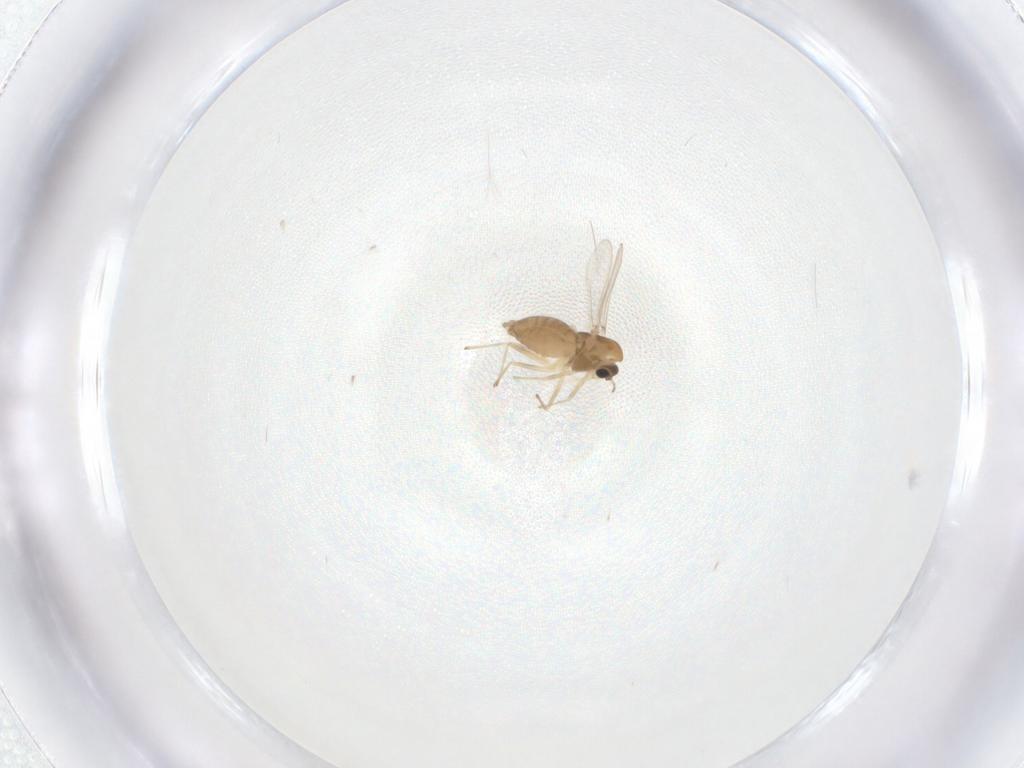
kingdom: Animalia
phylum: Arthropoda
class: Insecta
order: Diptera
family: Chironomidae
